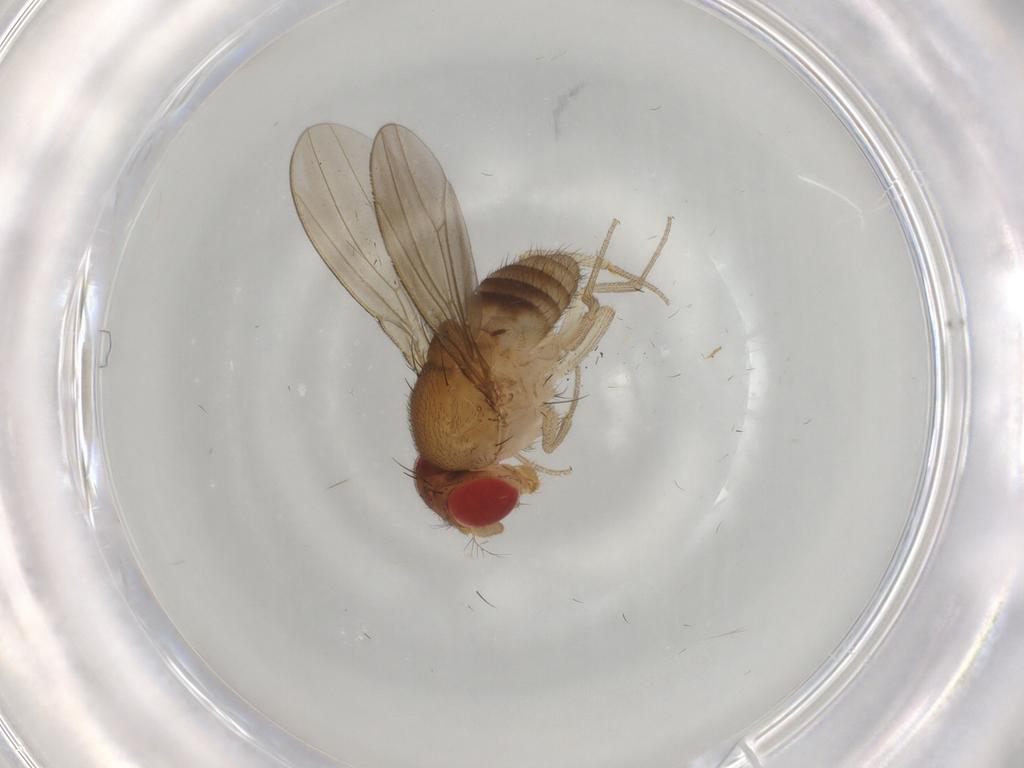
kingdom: Animalia
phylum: Arthropoda
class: Insecta
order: Diptera
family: Drosophilidae
